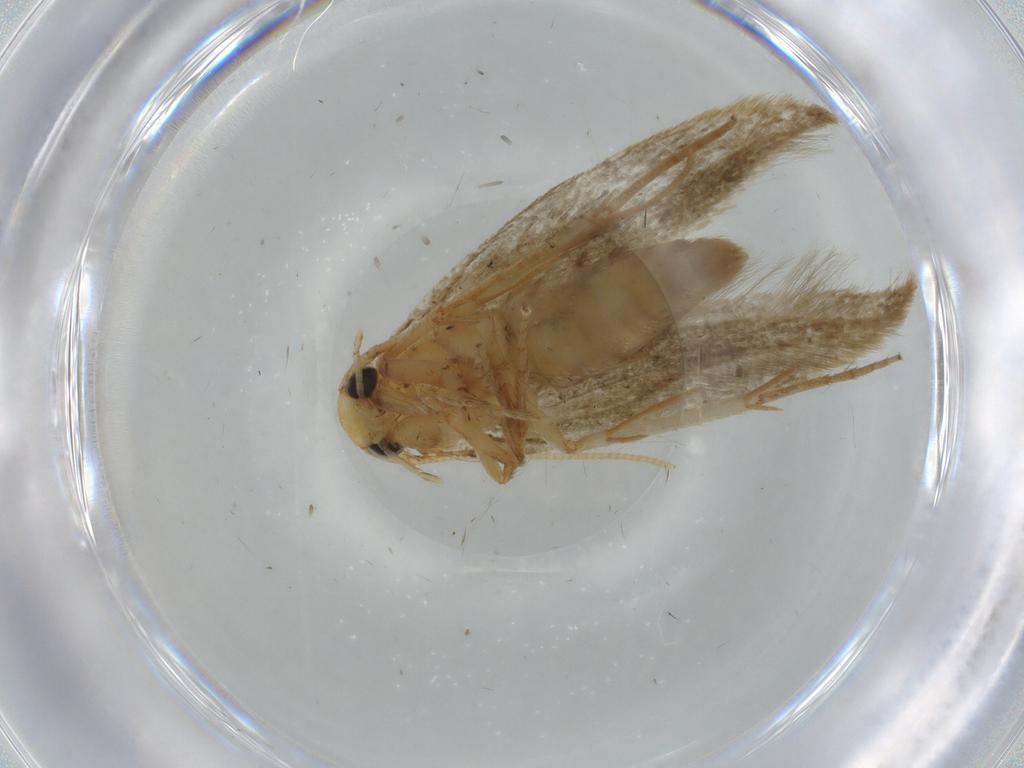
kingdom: Animalia
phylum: Arthropoda
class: Insecta
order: Lepidoptera
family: Tineidae
